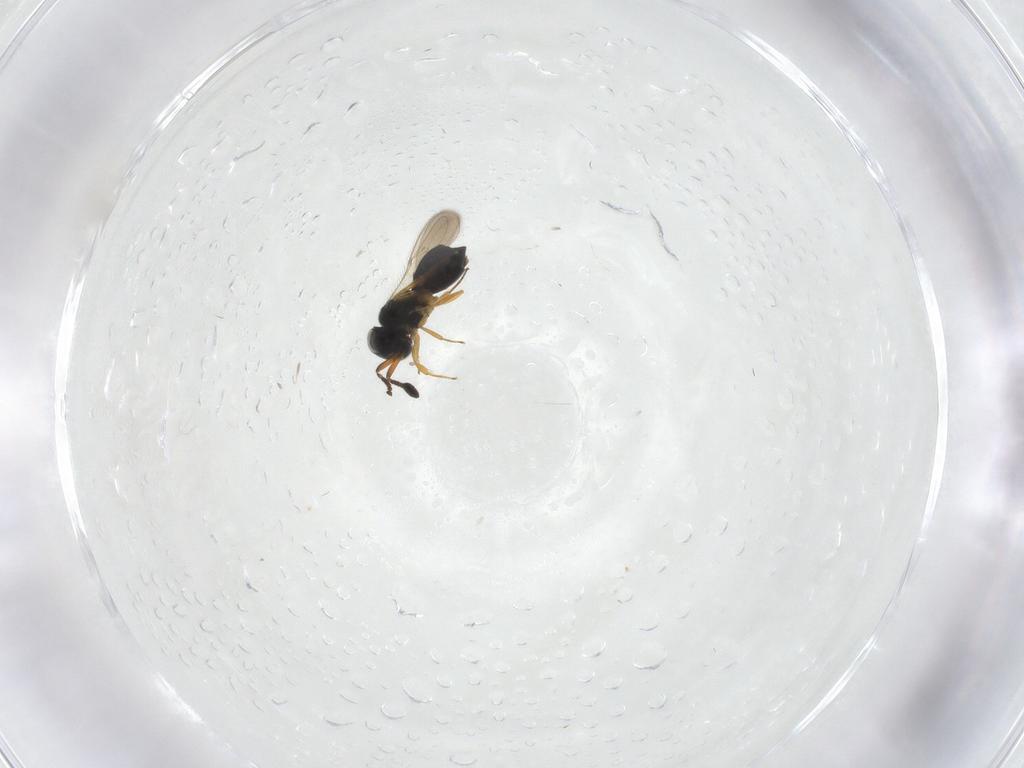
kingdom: Animalia
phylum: Arthropoda
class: Insecta
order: Hymenoptera
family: Scelionidae
